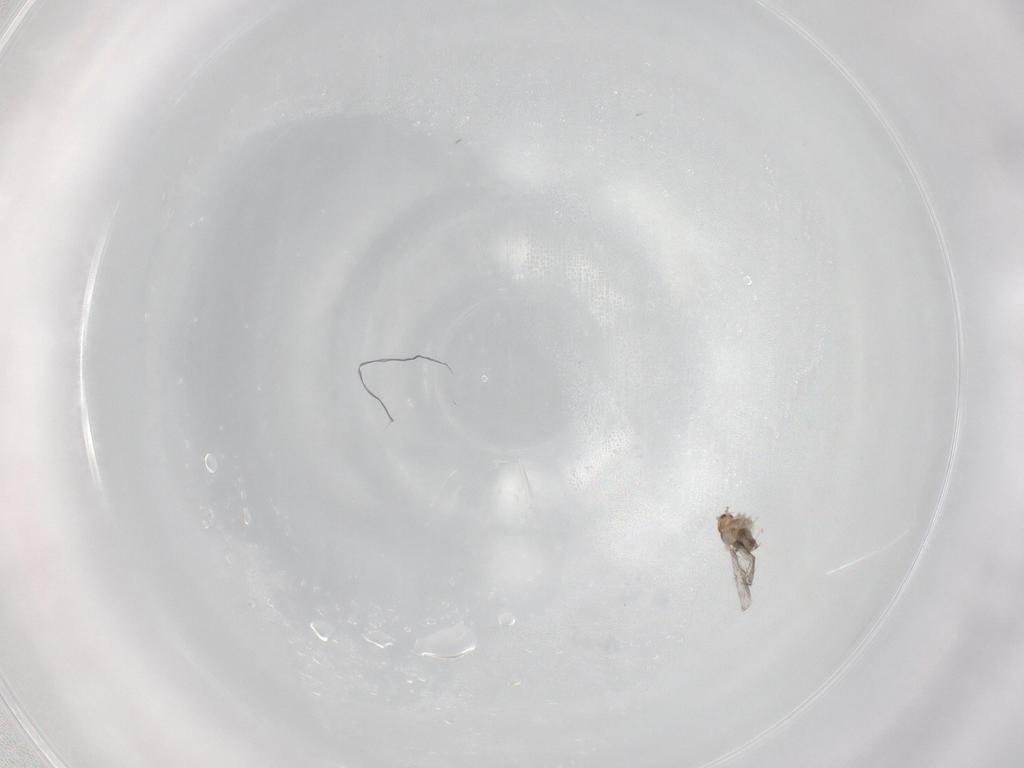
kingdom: Animalia
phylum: Arthropoda
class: Insecta
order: Diptera
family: Cecidomyiidae
